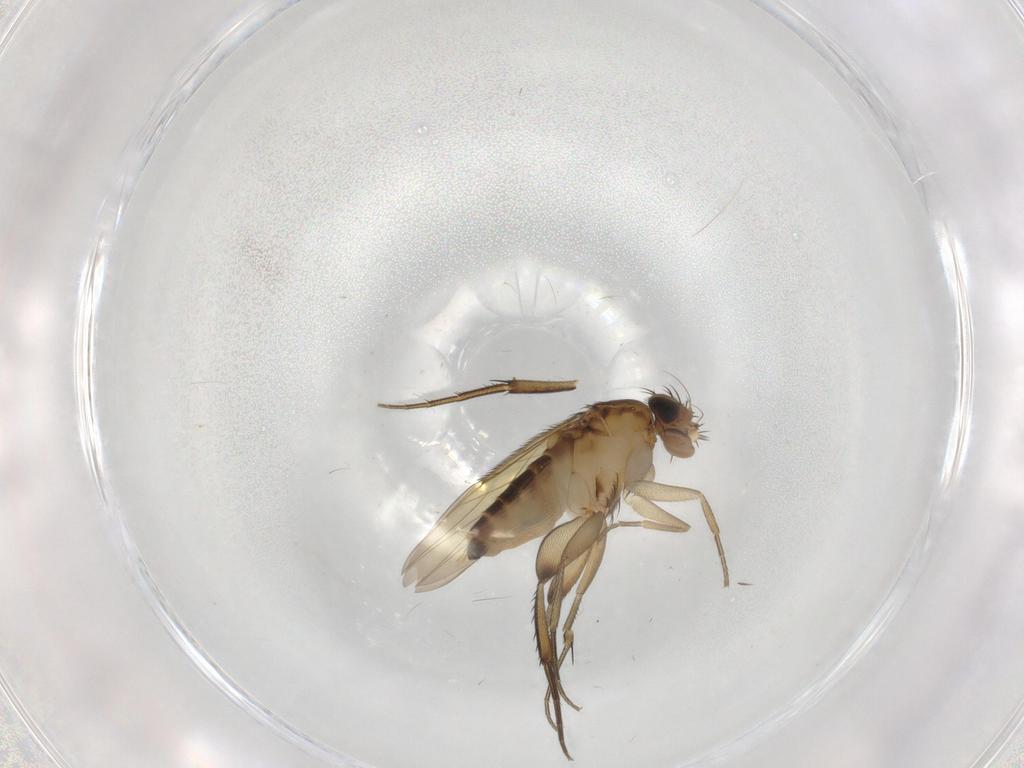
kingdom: Animalia
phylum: Arthropoda
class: Insecta
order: Diptera
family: Phoridae
